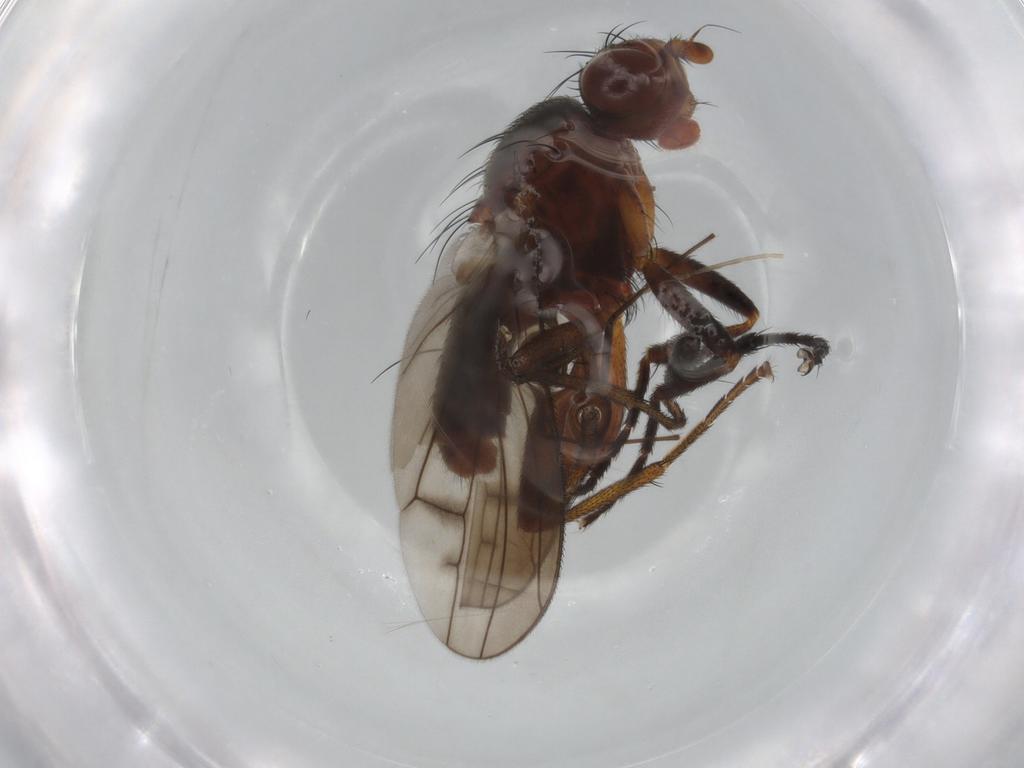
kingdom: Animalia
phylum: Arthropoda
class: Insecta
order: Diptera
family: Anthomyiidae
